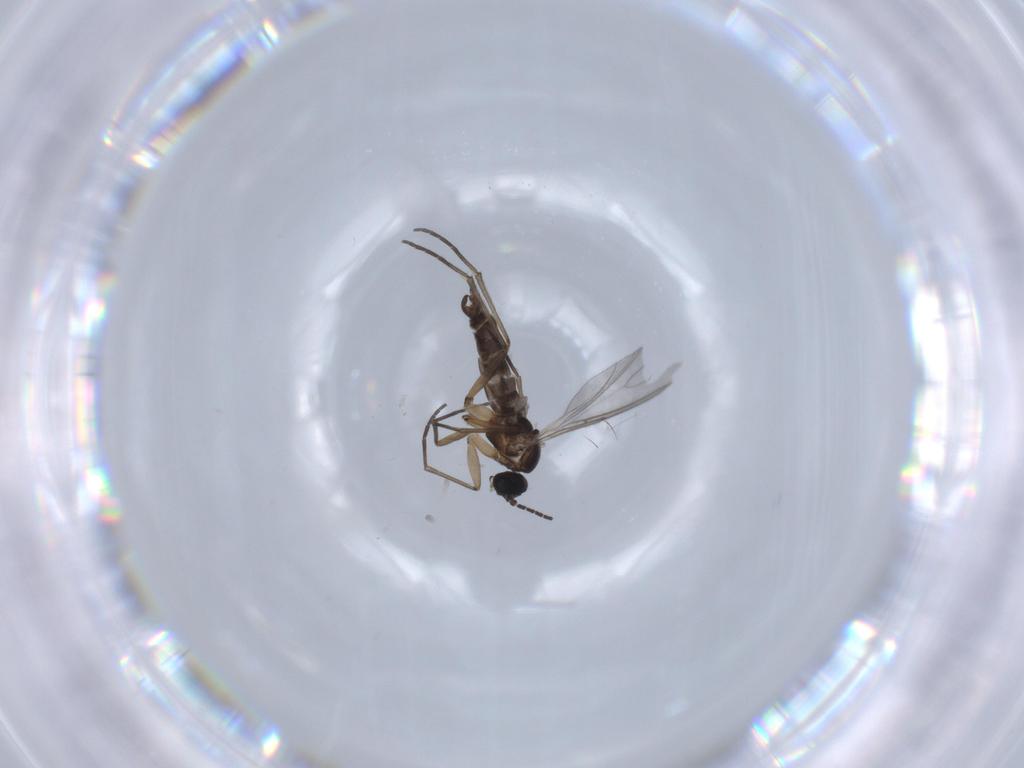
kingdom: Animalia
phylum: Arthropoda
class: Insecta
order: Diptera
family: Sciaridae
